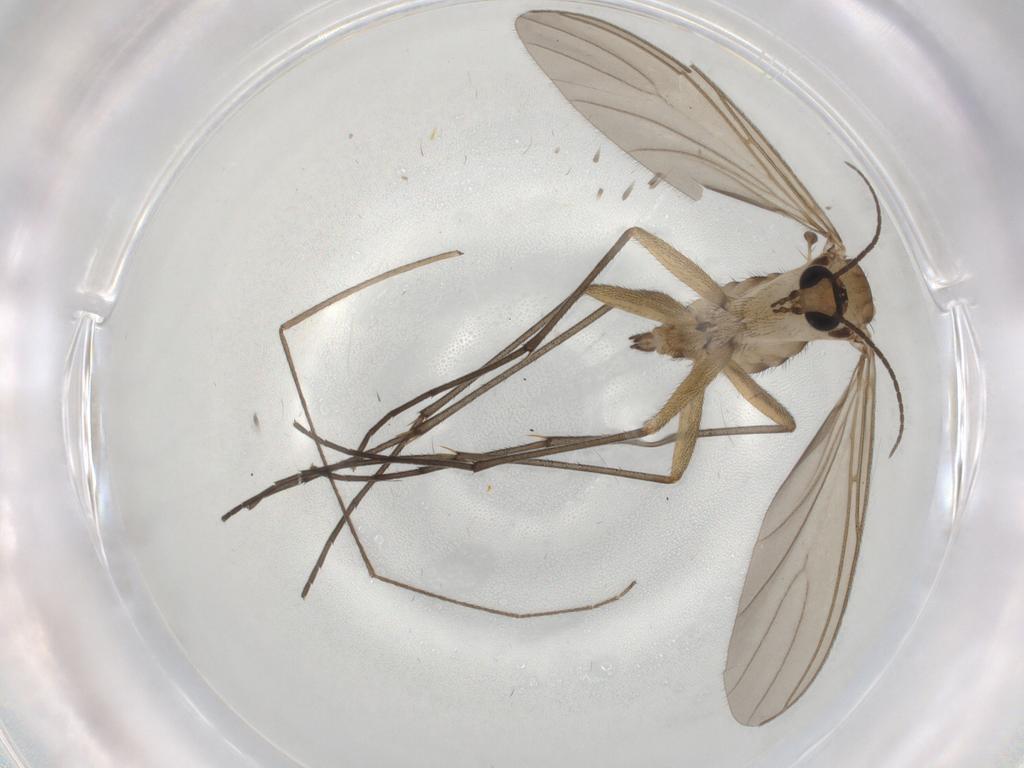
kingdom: Animalia
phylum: Arthropoda
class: Insecta
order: Diptera
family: Sciaridae
